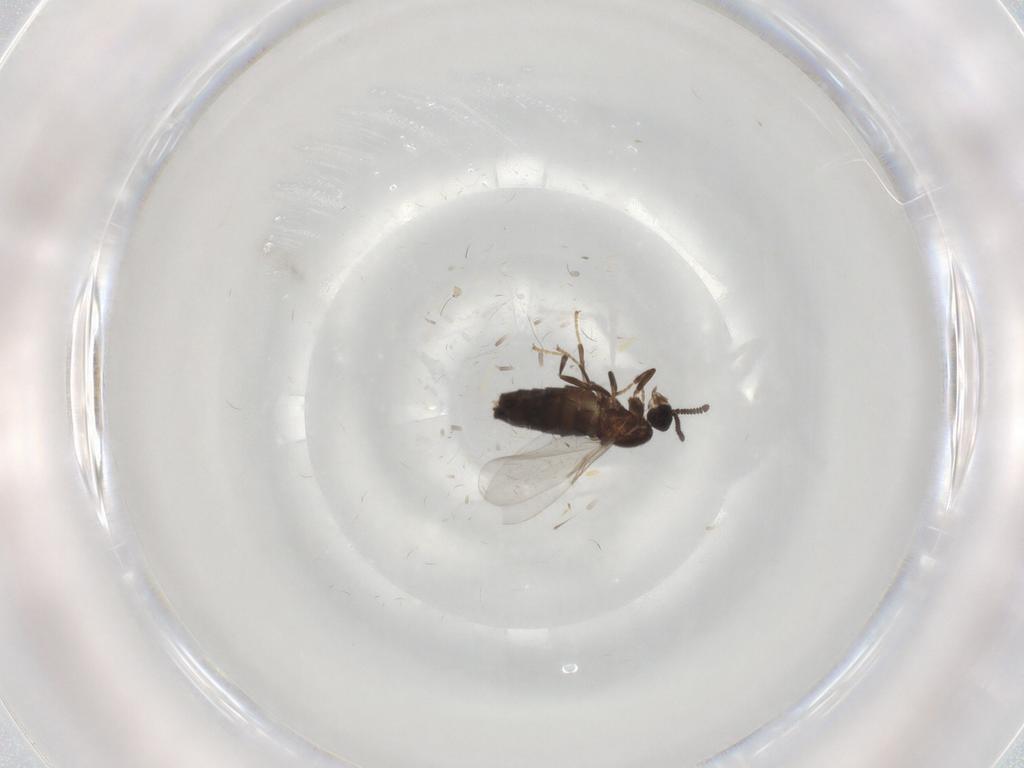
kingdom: Animalia
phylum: Arthropoda
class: Insecta
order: Diptera
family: Scatopsidae
